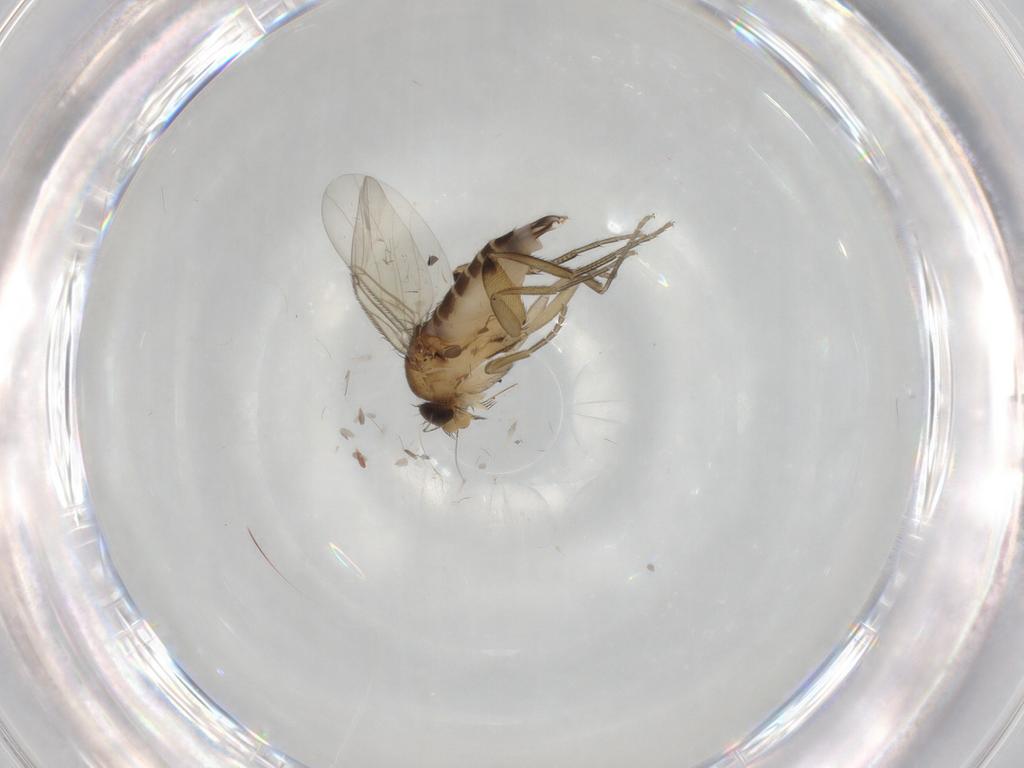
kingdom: Animalia
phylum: Arthropoda
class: Insecta
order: Diptera
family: Phoridae
